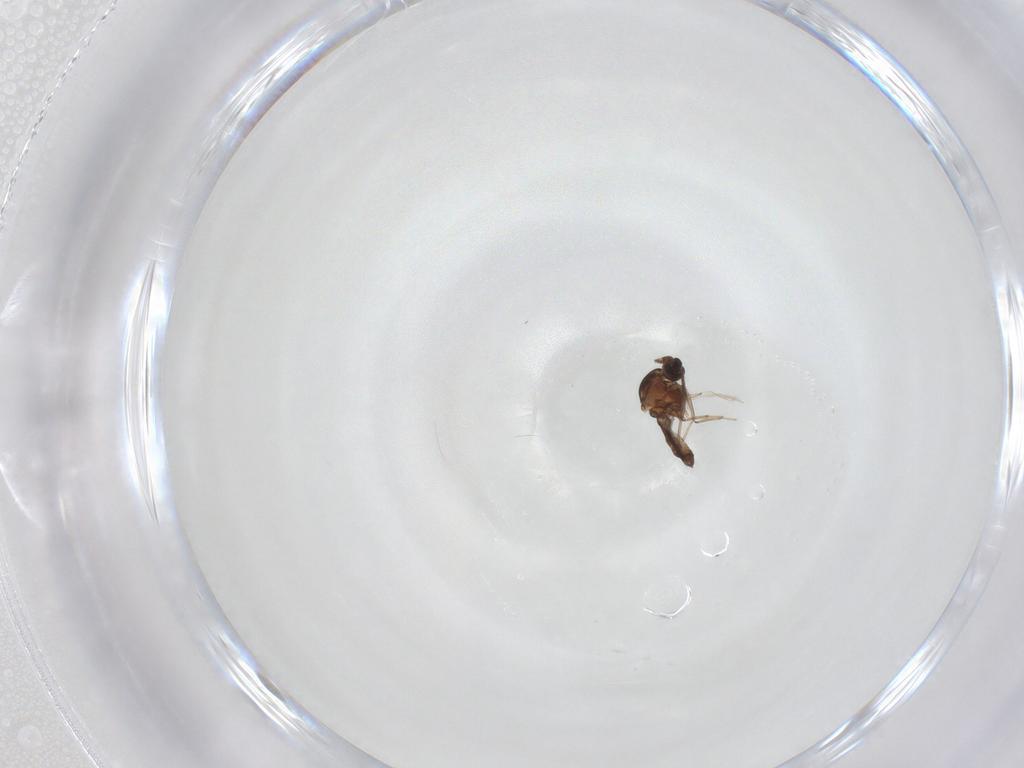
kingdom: Animalia
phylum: Arthropoda
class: Insecta
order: Diptera
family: Ceratopogonidae
